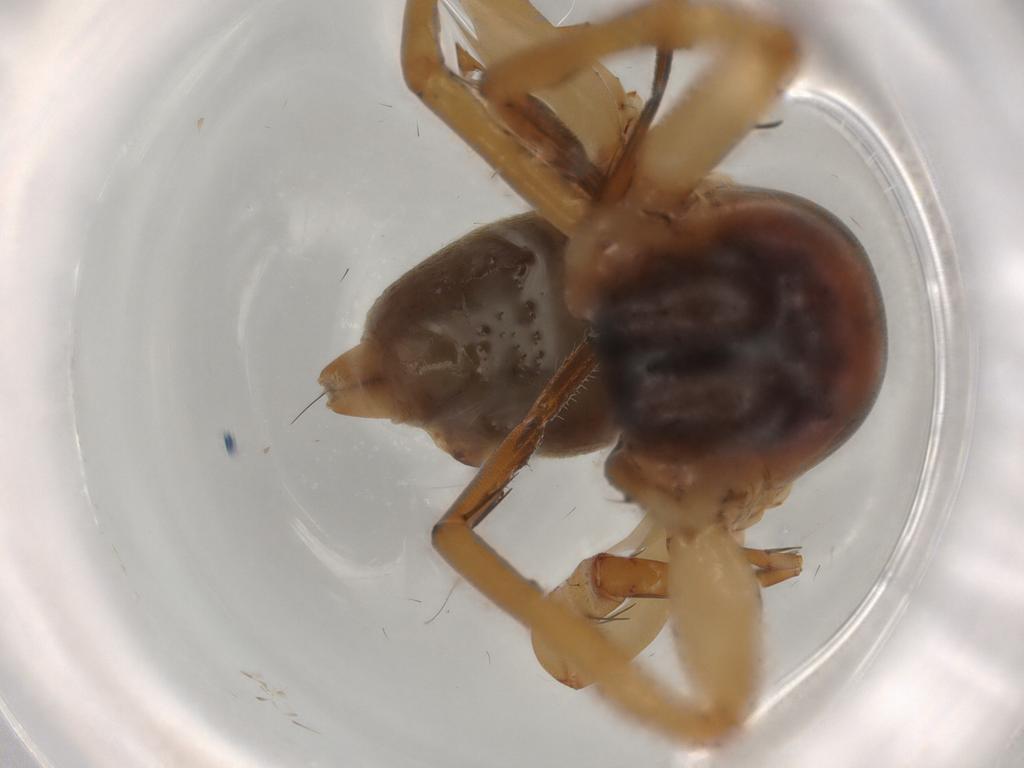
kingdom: Animalia
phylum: Arthropoda
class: Arachnida
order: Araneae
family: Clubionidae
